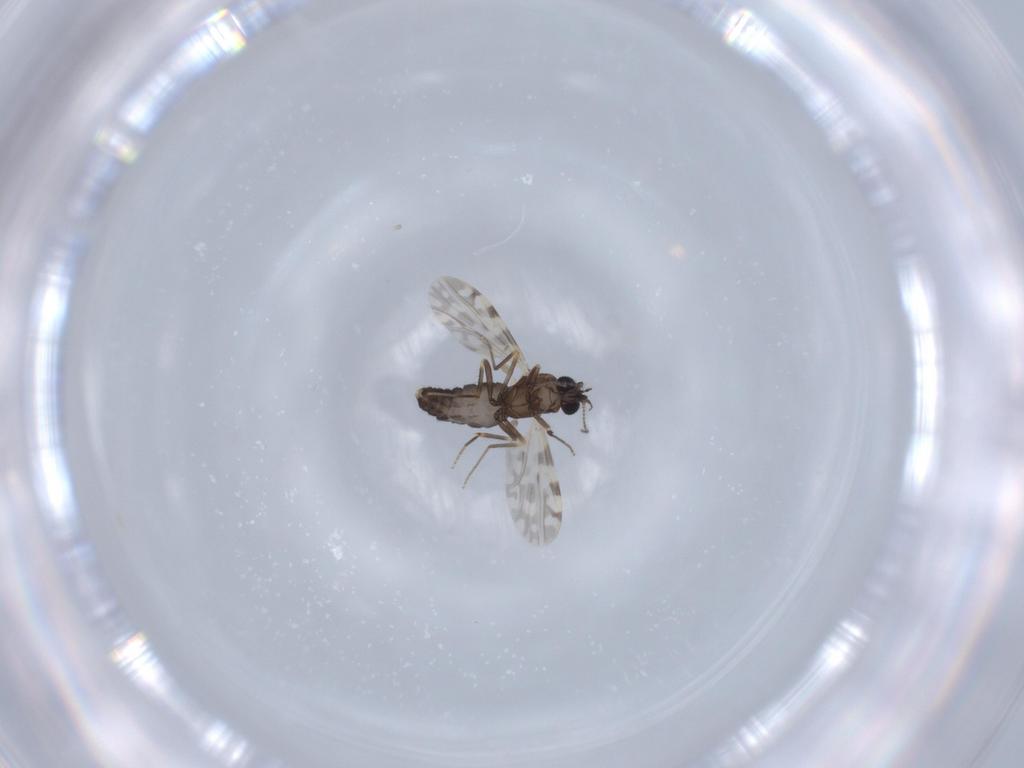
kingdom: Animalia
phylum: Arthropoda
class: Insecta
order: Diptera
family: Ceratopogonidae
